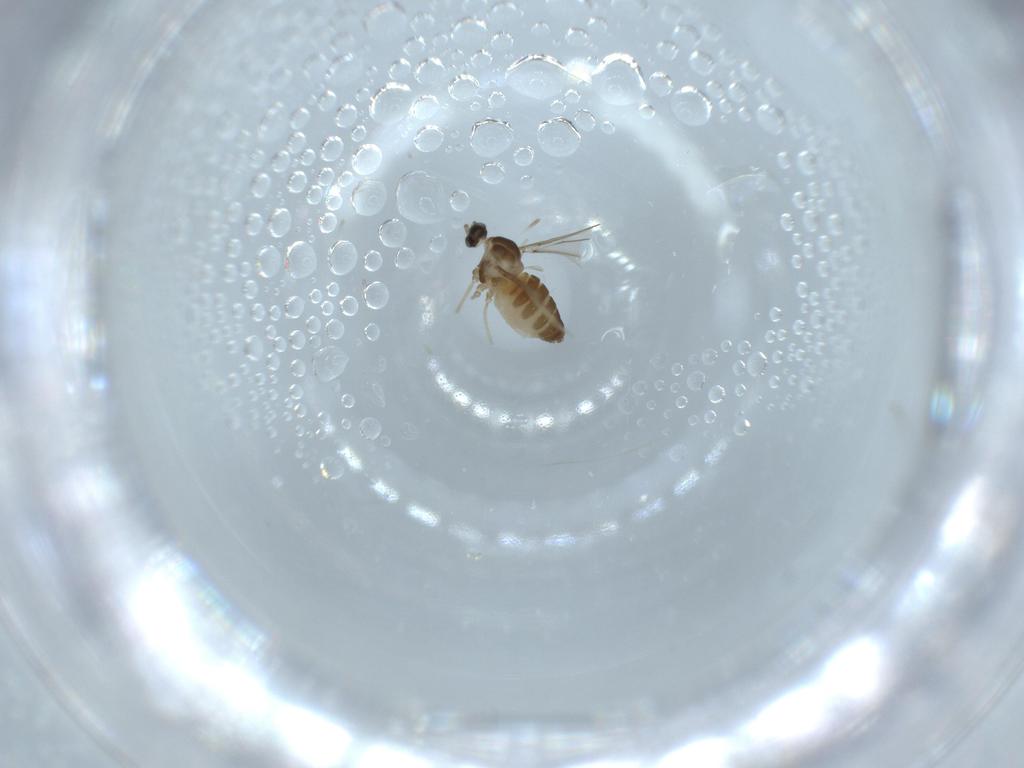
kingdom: Animalia
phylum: Arthropoda
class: Insecta
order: Diptera
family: Cecidomyiidae
